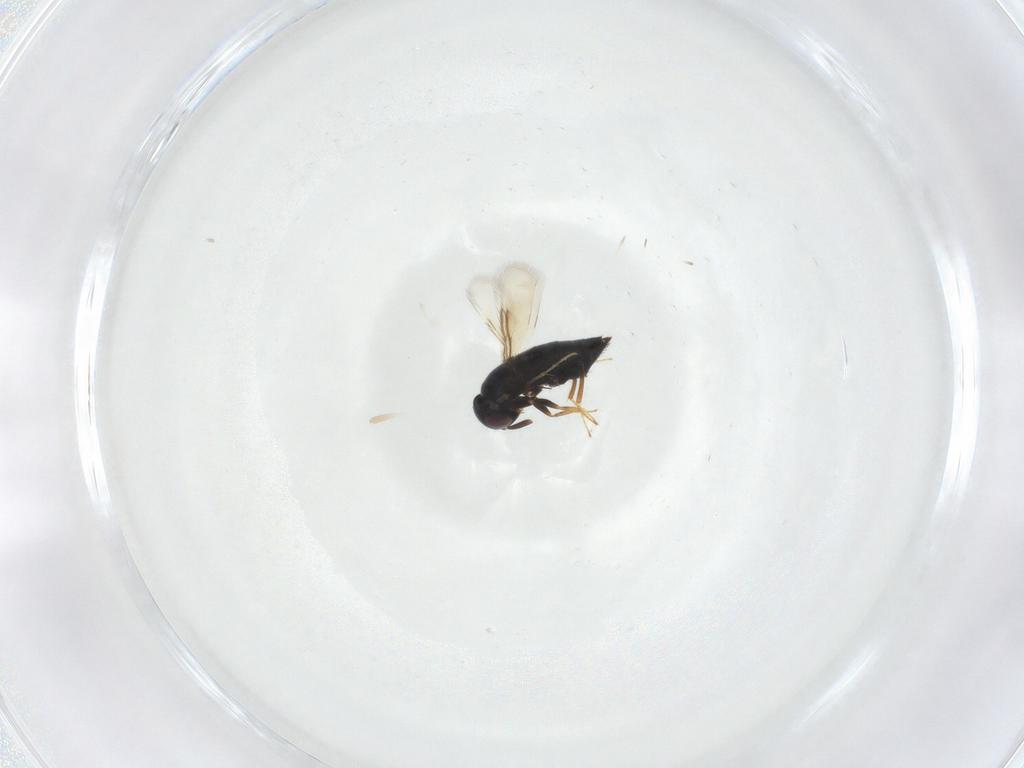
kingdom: Animalia
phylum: Arthropoda
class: Insecta
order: Hymenoptera
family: Signiphoridae
